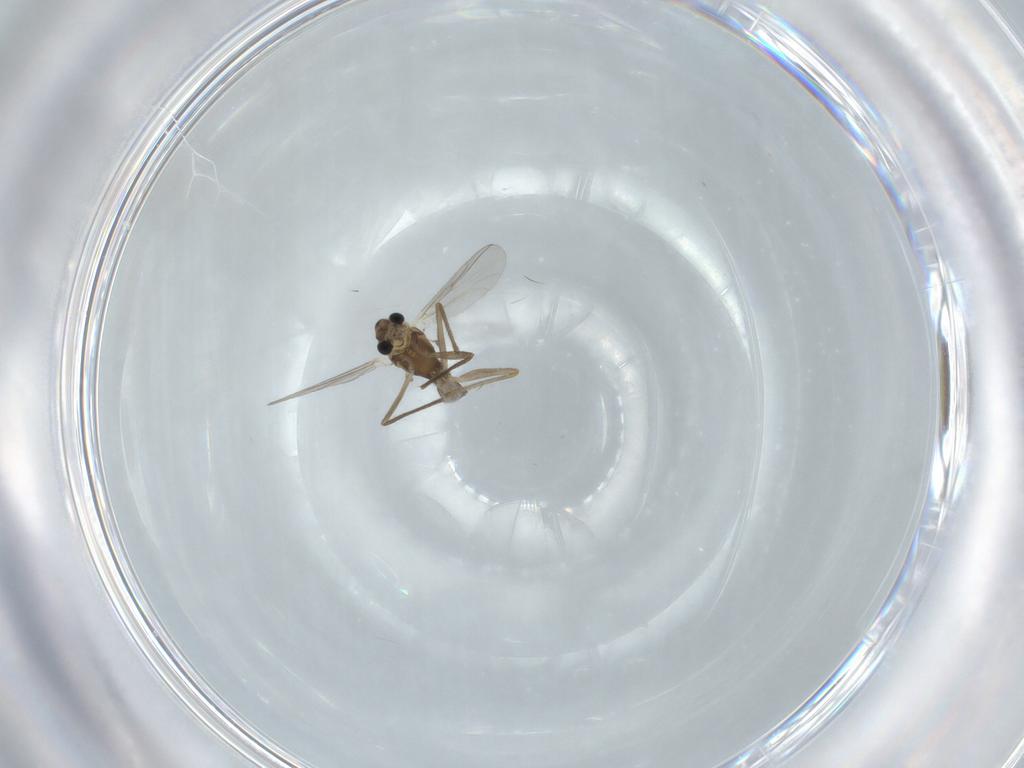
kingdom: Animalia
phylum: Arthropoda
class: Insecta
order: Diptera
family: Chironomidae
